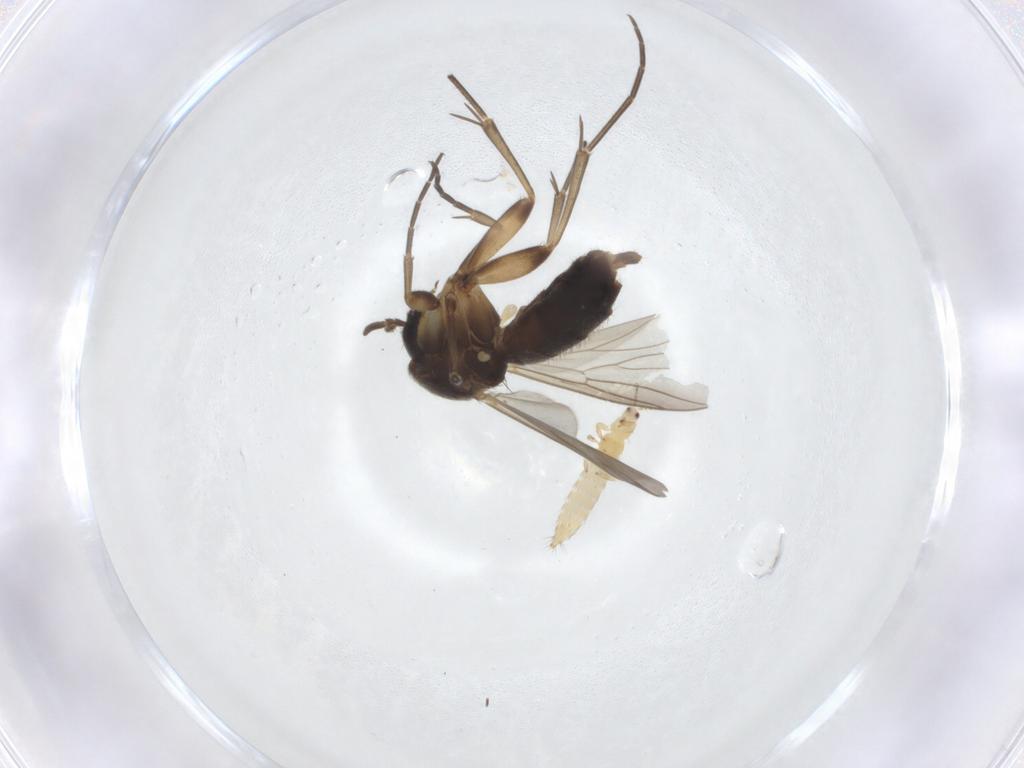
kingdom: Animalia
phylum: Arthropoda
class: Insecta
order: Diptera
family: Mycetophilidae
